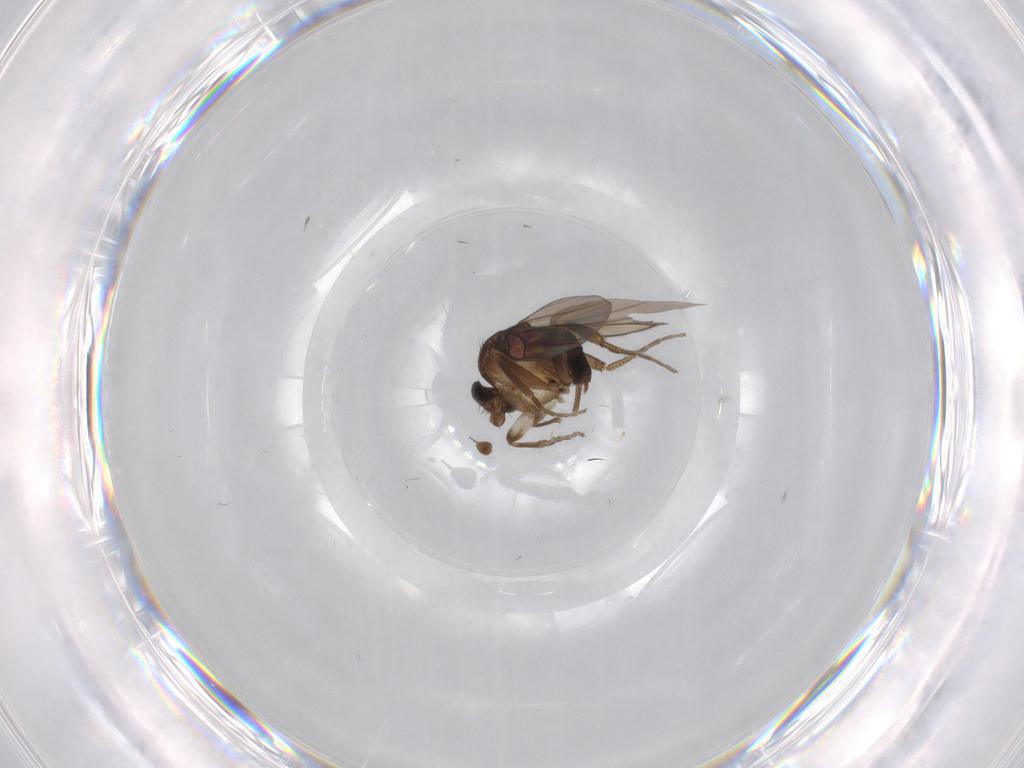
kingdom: Animalia
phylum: Arthropoda
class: Insecta
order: Diptera
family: Cecidomyiidae
